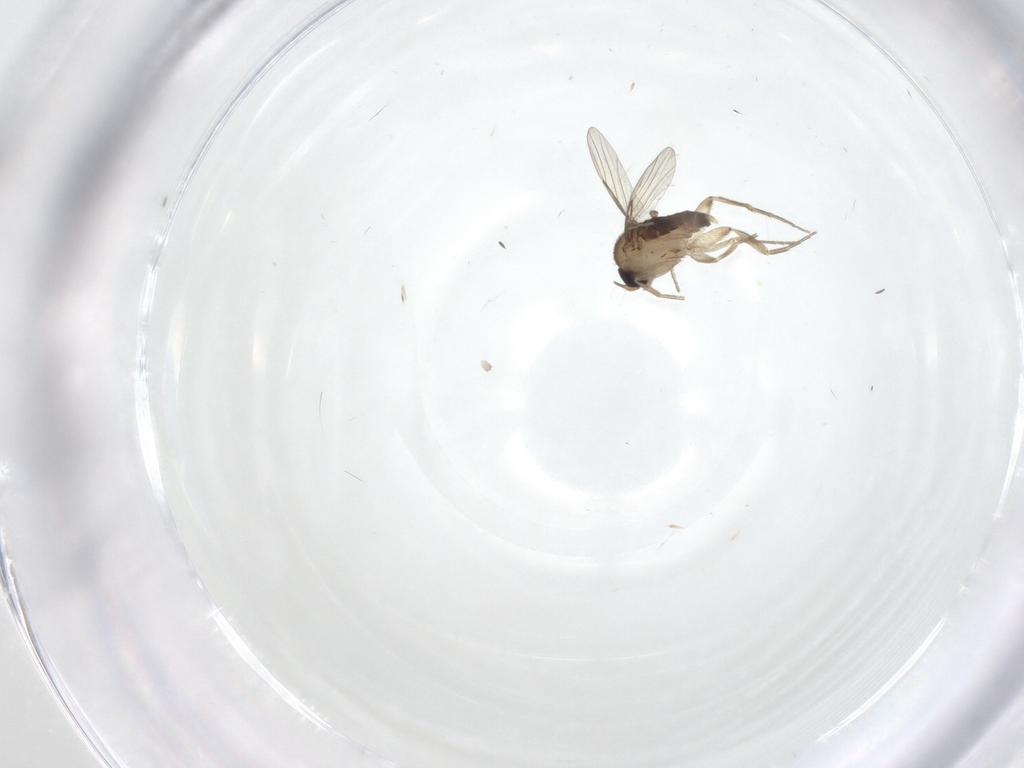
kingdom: Animalia
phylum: Arthropoda
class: Insecta
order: Diptera
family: Phoridae
